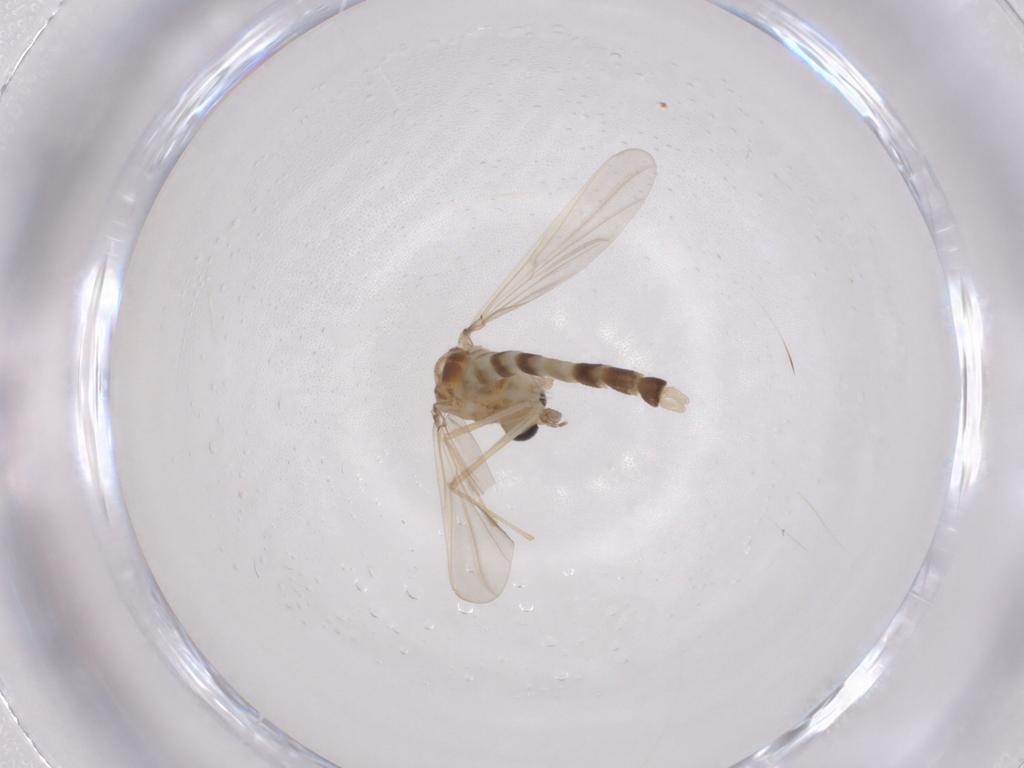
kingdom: Animalia
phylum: Arthropoda
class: Insecta
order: Diptera
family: Chironomidae
